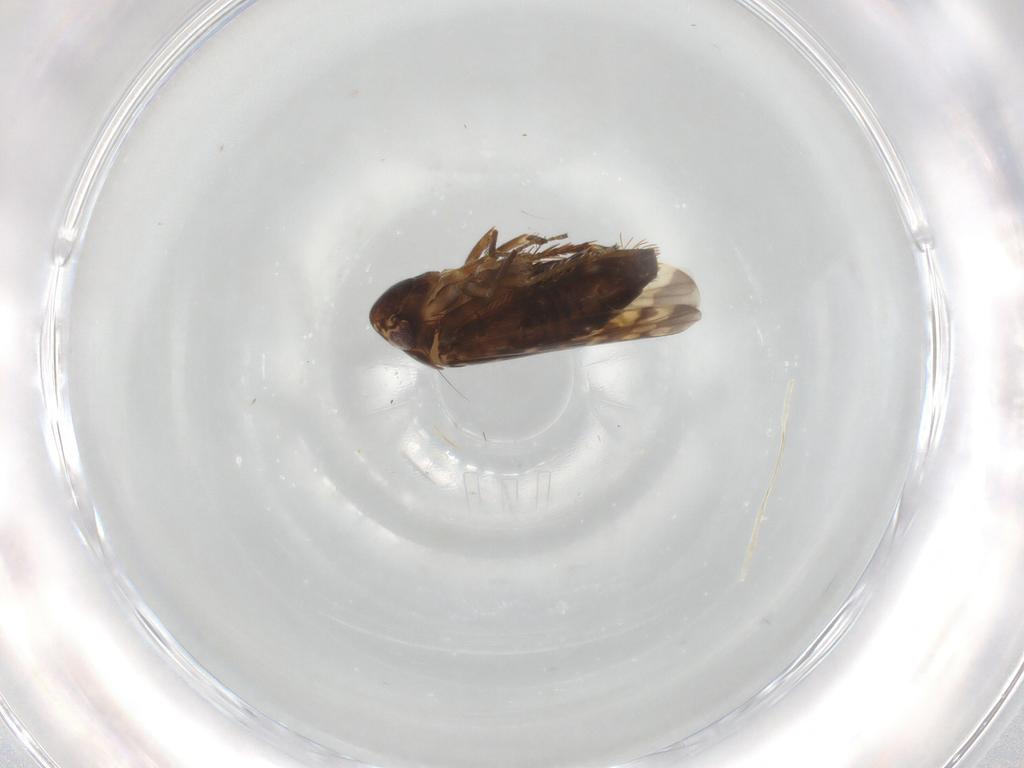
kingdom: Animalia
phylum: Arthropoda
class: Insecta
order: Hemiptera
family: Cicadellidae
